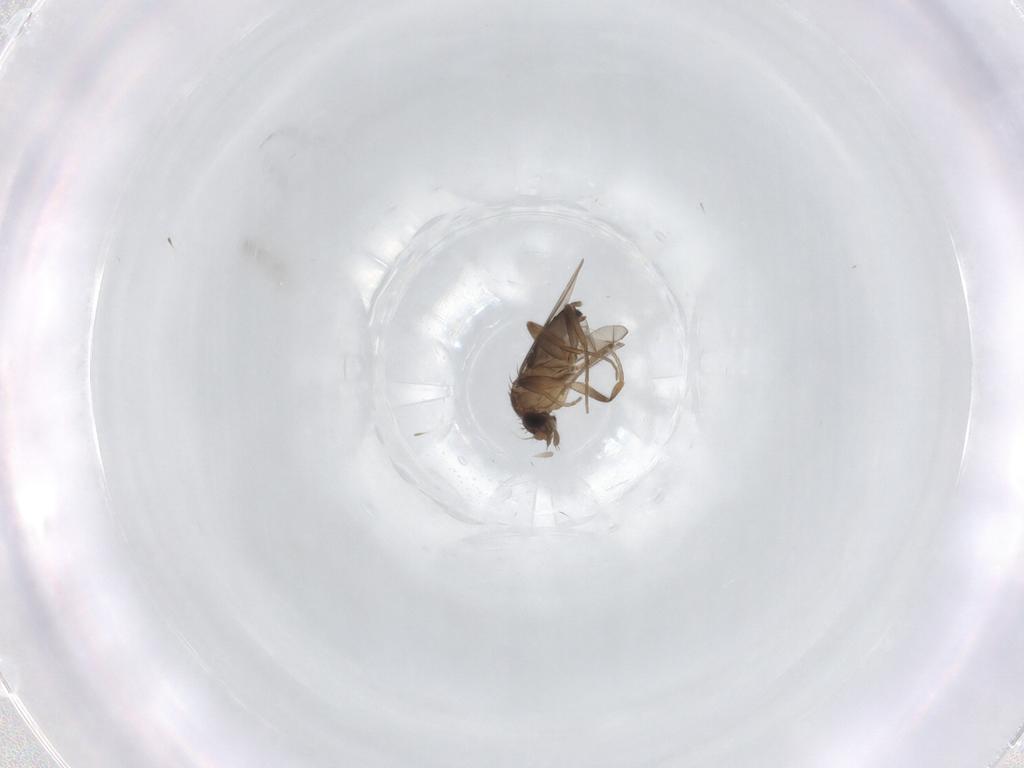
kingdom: Animalia
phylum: Arthropoda
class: Insecta
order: Diptera
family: Phoridae
